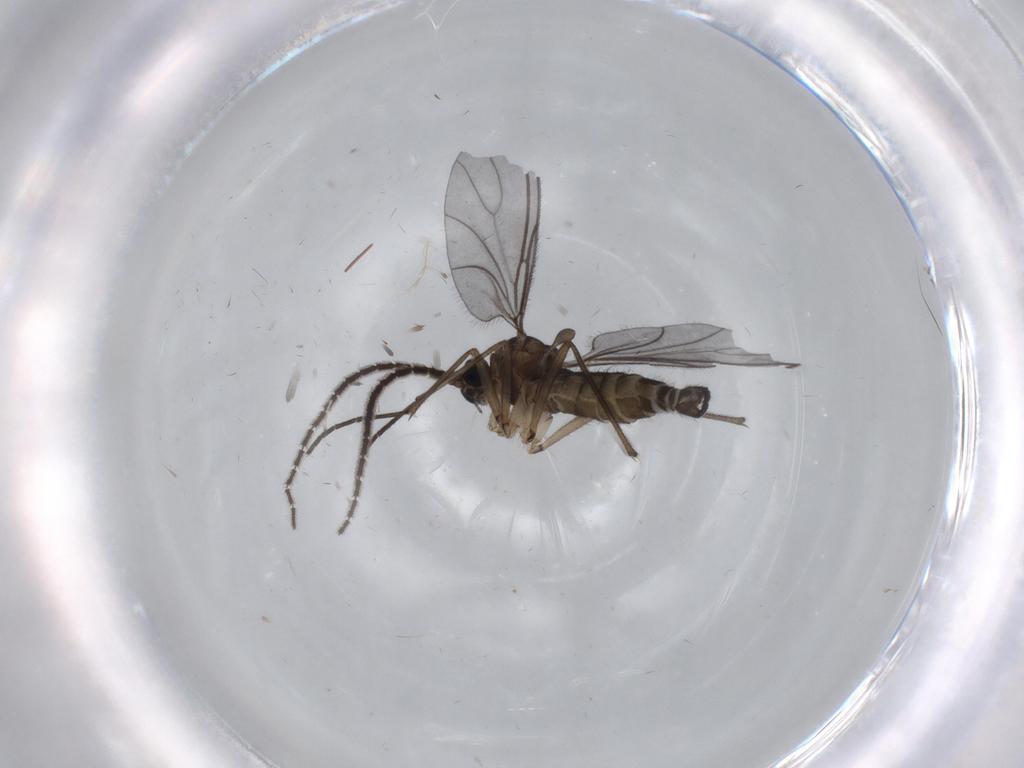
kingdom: Animalia
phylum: Arthropoda
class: Insecta
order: Diptera
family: Sciaridae
